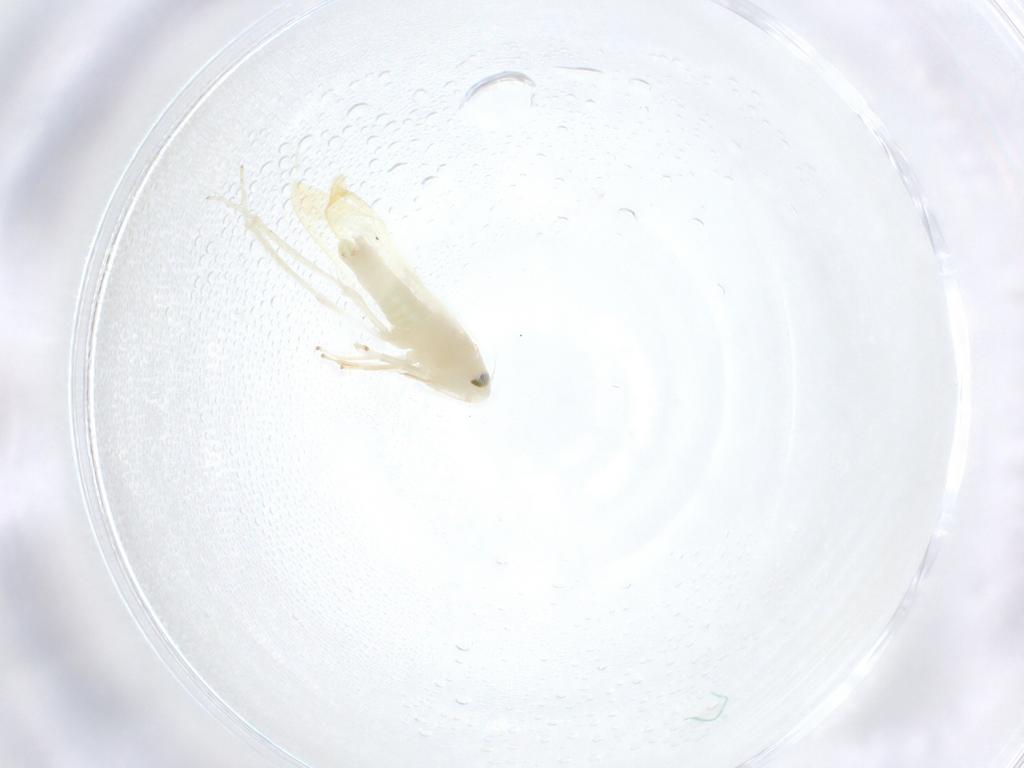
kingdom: Animalia
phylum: Arthropoda
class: Insecta
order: Hemiptera
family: Cicadellidae
